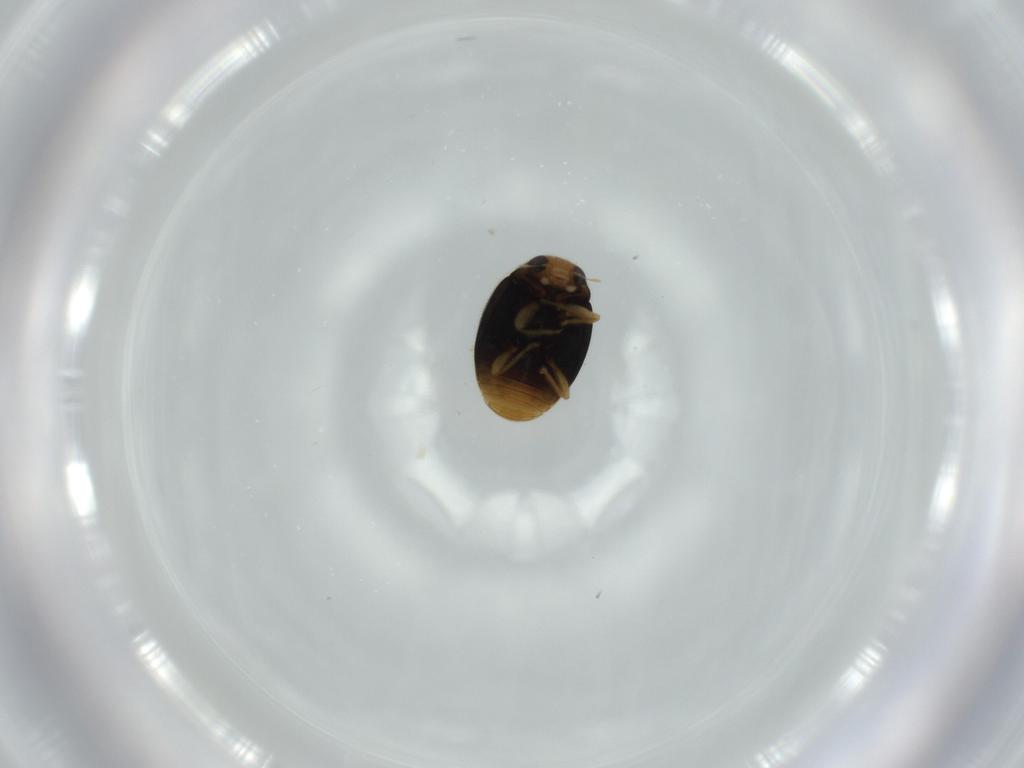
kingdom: Animalia
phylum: Arthropoda
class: Insecta
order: Coleoptera
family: Coccinellidae
